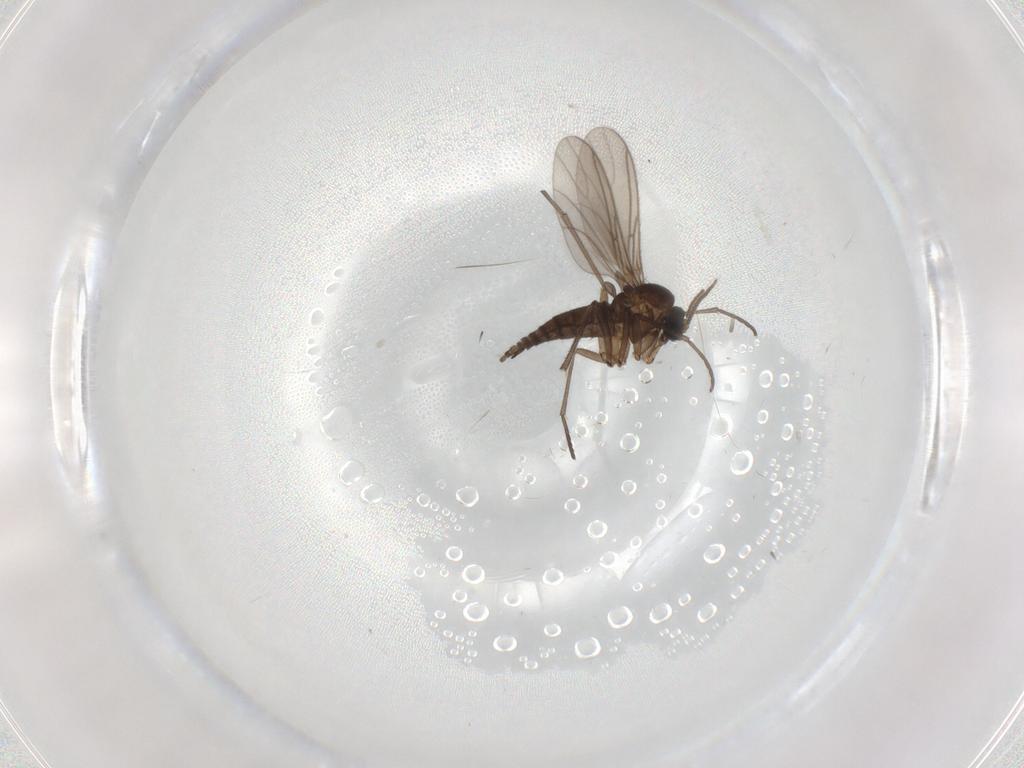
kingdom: Animalia
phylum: Arthropoda
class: Insecta
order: Diptera
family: Sciaridae
